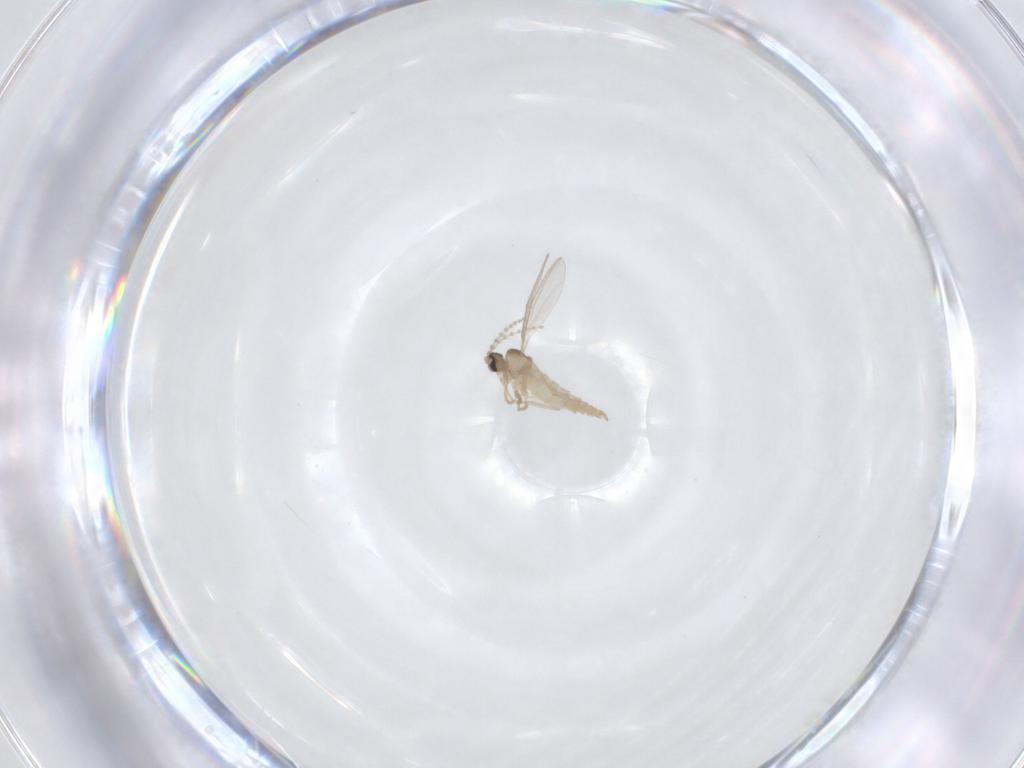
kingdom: Animalia
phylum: Arthropoda
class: Insecta
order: Diptera
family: Cecidomyiidae
